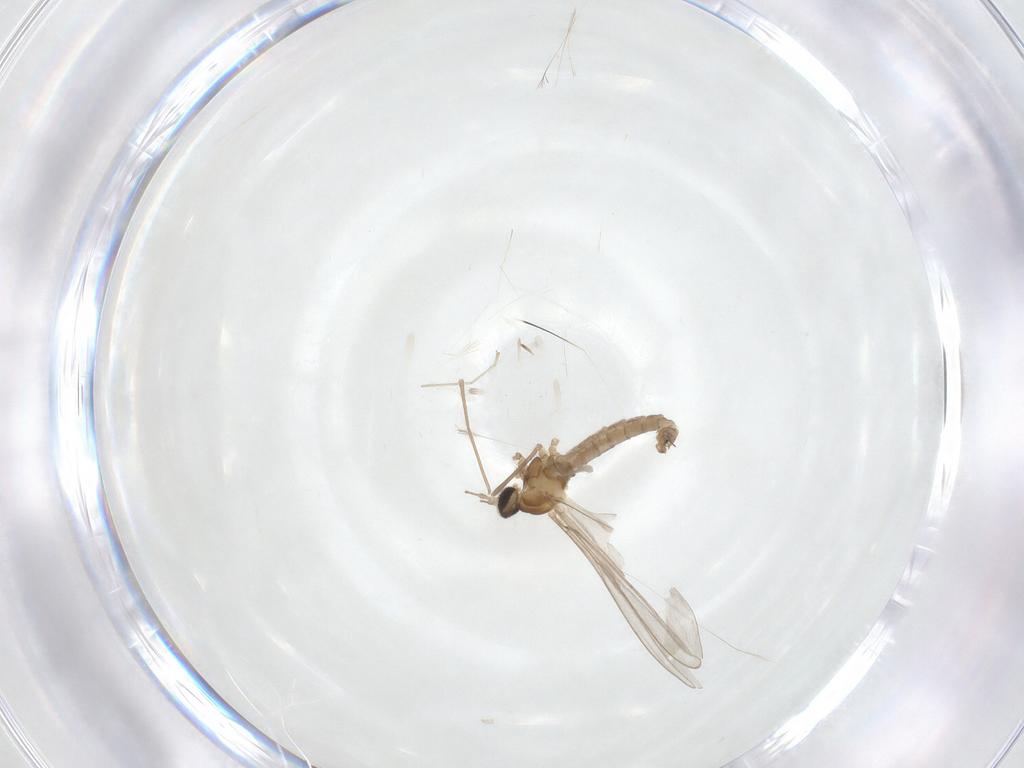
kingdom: Animalia
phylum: Arthropoda
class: Insecta
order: Diptera
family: Cecidomyiidae
